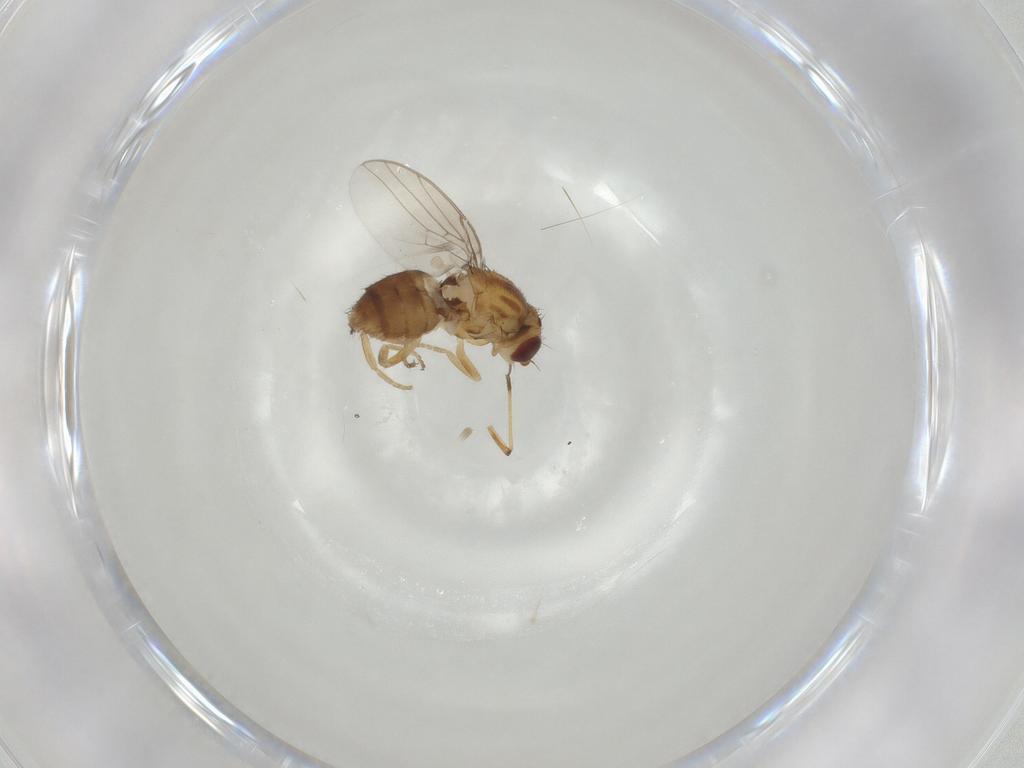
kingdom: Animalia
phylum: Arthropoda
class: Insecta
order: Diptera
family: Chloropidae
